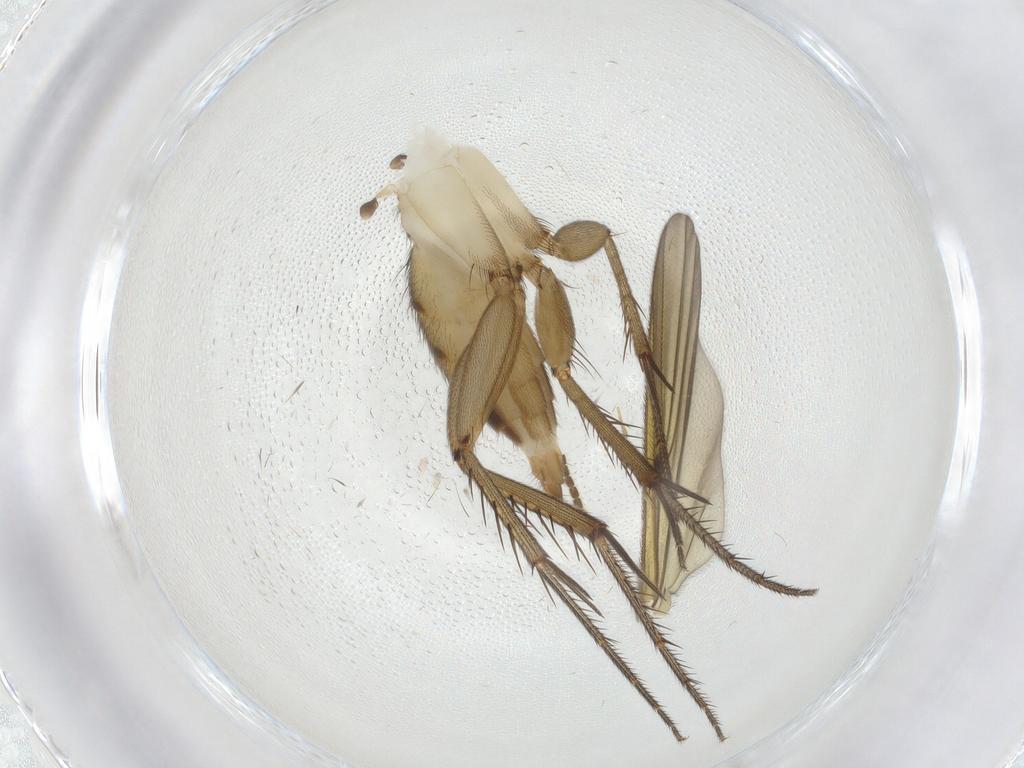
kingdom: Animalia
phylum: Arthropoda
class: Insecta
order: Diptera
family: Mycetophilidae
